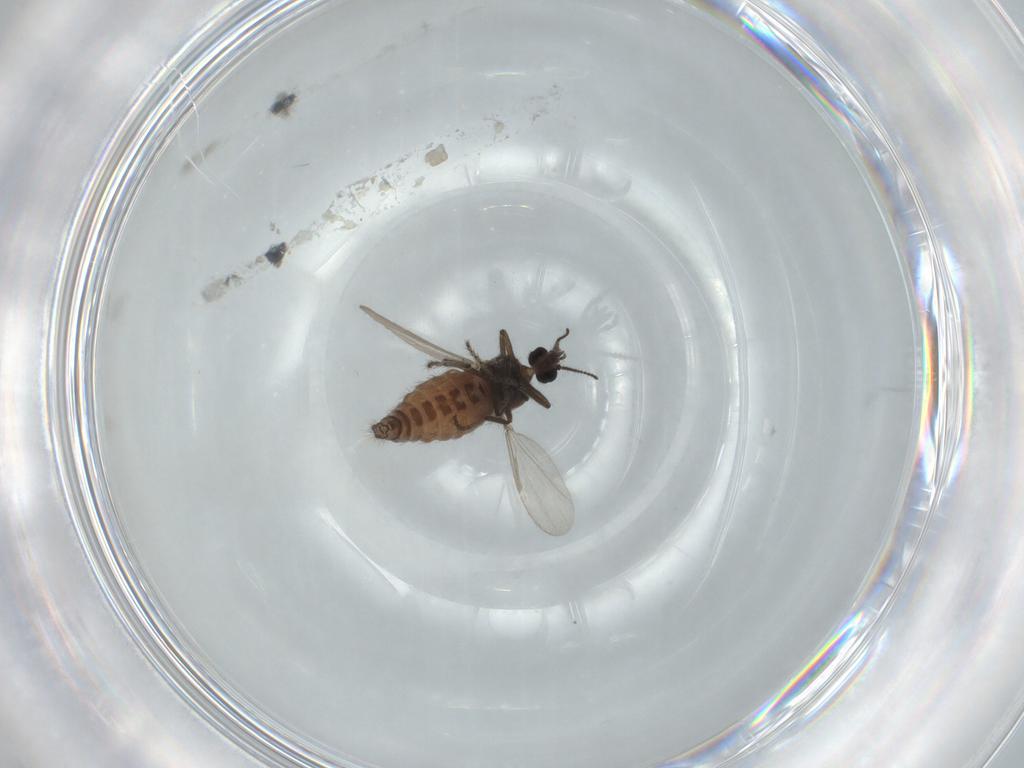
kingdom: Animalia
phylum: Arthropoda
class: Insecta
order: Diptera
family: Ceratopogonidae
